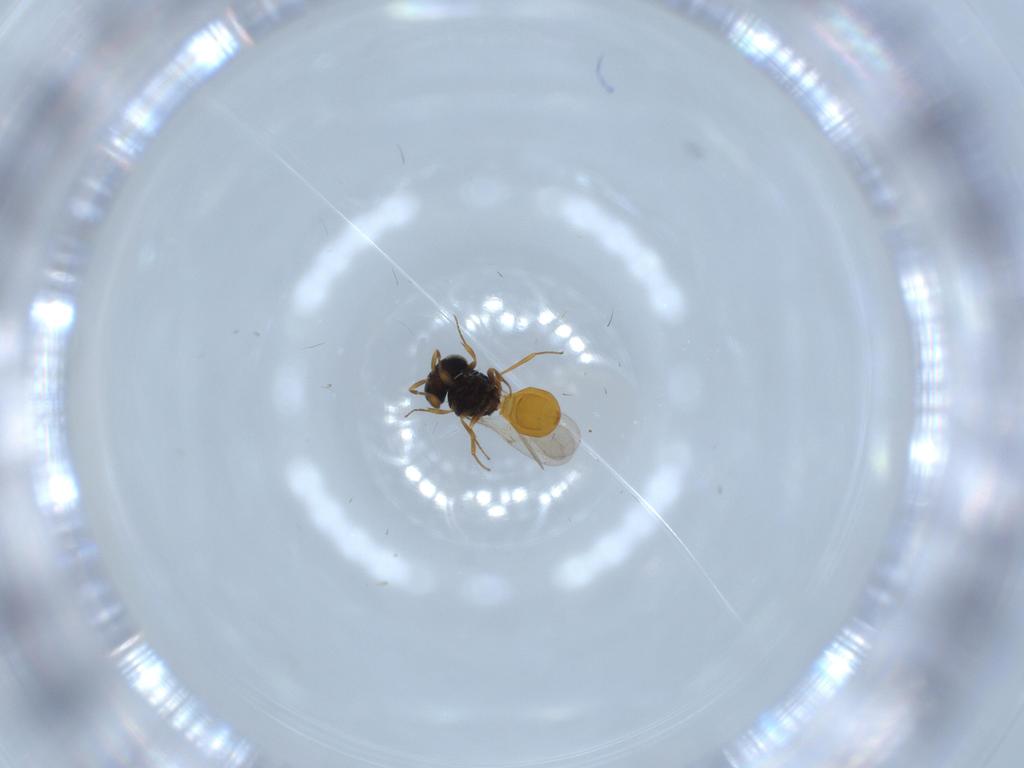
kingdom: Animalia
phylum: Arthropoda
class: Insecta
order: Hymenoptera
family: Scelionidae
